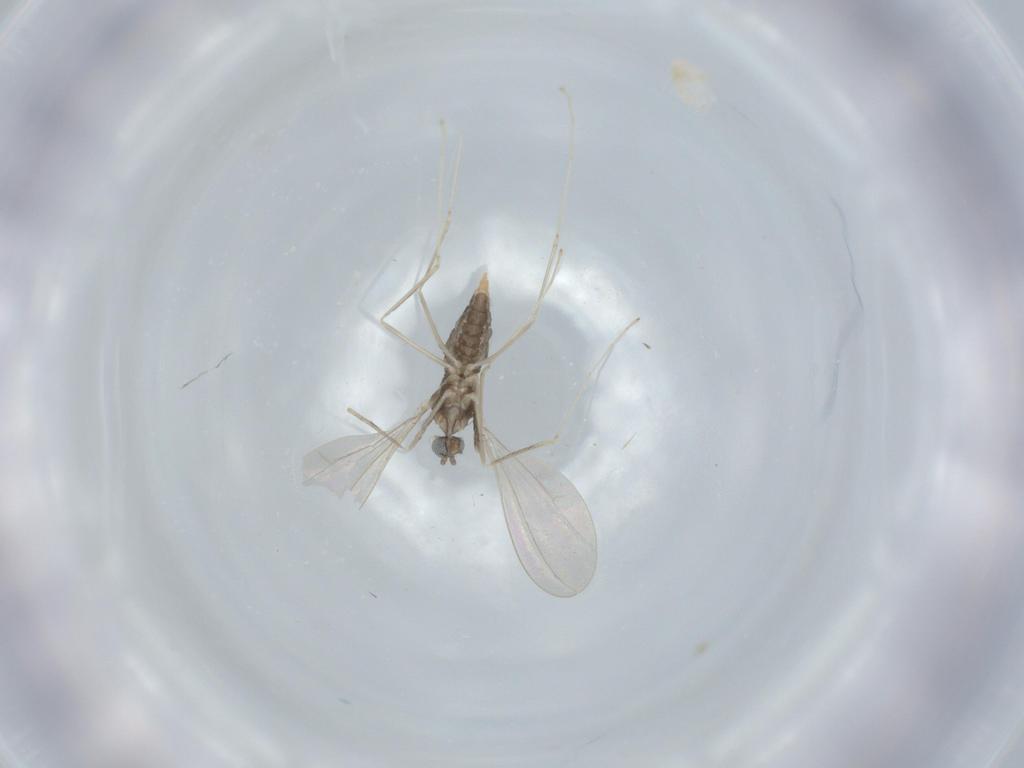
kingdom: Animalia
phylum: Arthropoda
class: Insecta
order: Diptera
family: Cecidomyiidae
